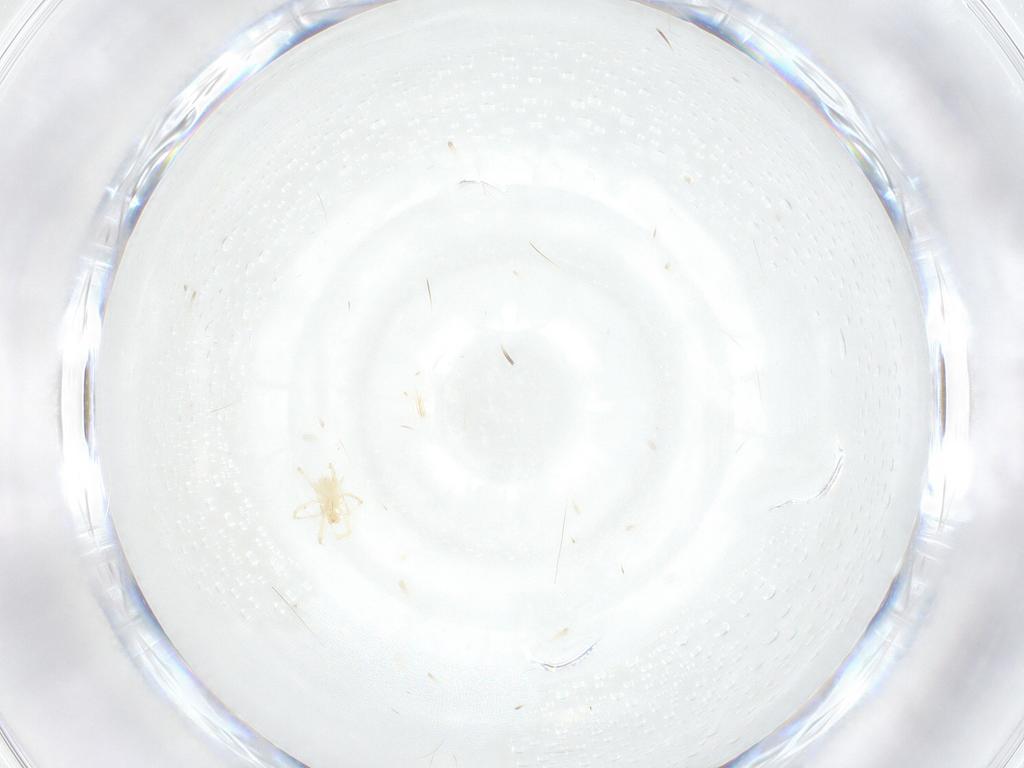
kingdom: Animalia
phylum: Arthropoda
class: Arachnida
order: Trombidiformes
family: Erythraeidae
